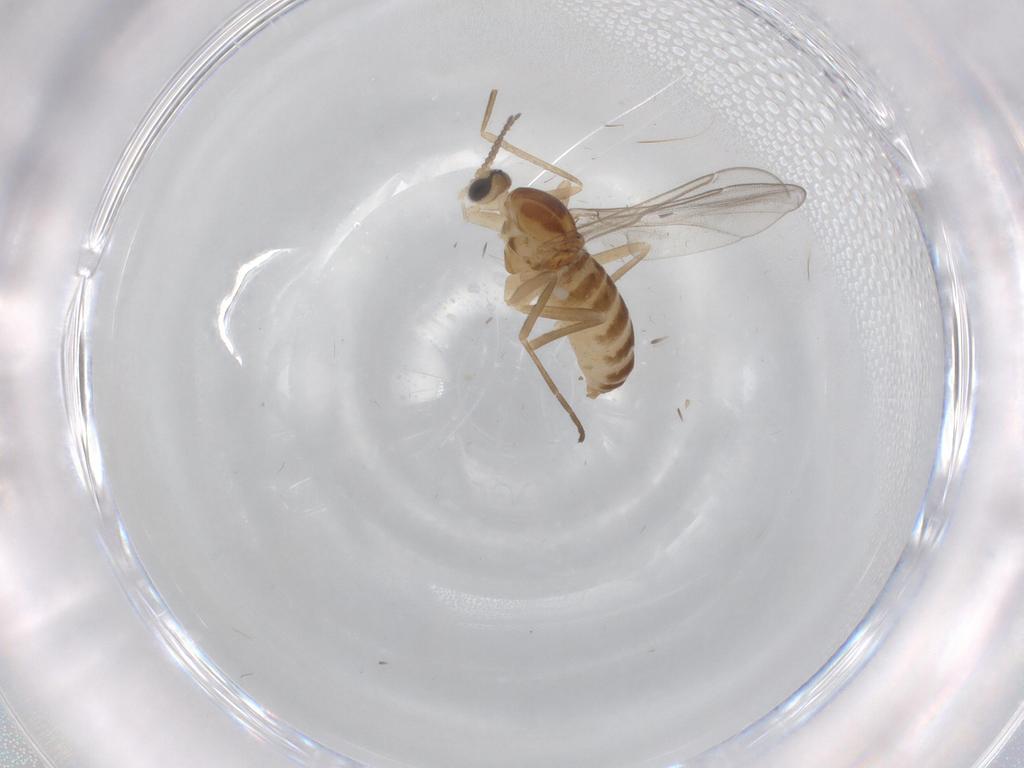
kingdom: Animalia
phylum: Arthropoda
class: Insecta
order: Diptera
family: Cecidomyiidae
